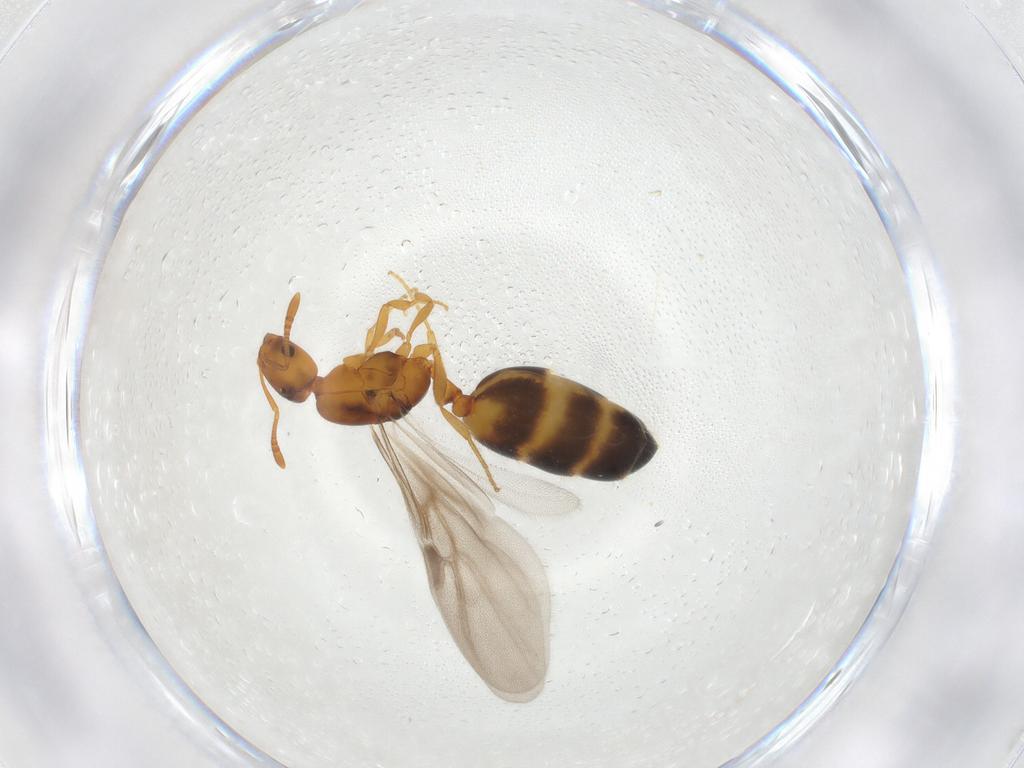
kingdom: Animalia
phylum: Arthropoda
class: Insecta
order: Hymenoptera
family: Formicidae
